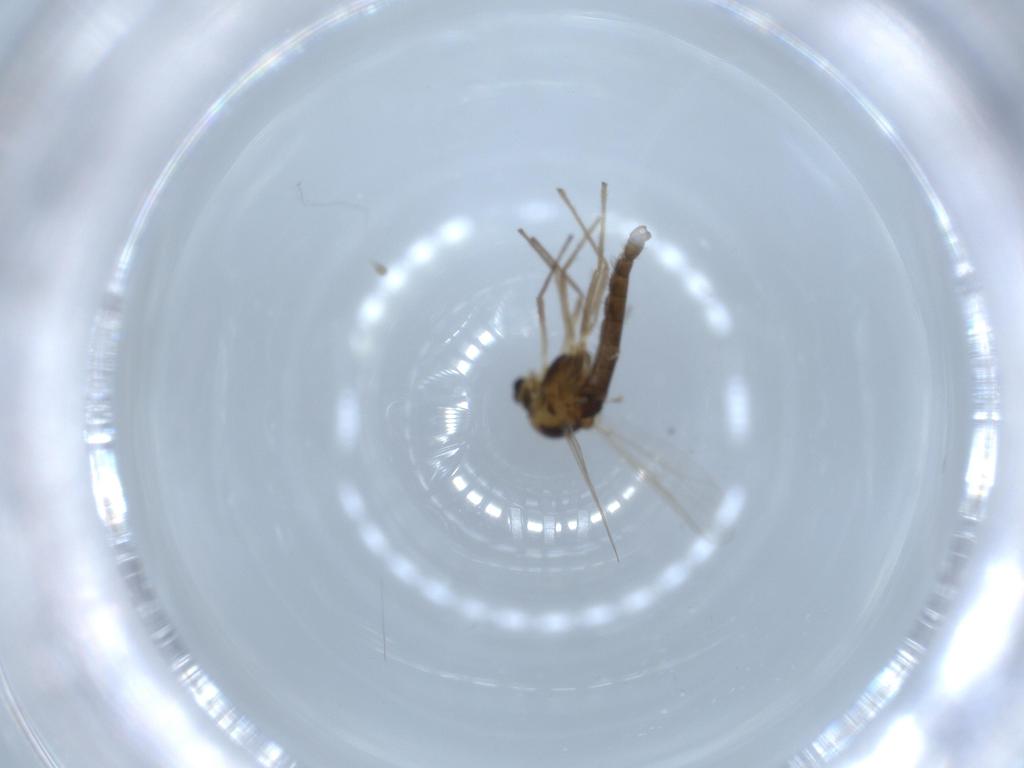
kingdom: Animalia
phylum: Arthropoda
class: Insecta
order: Diptera
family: Chironomidae
